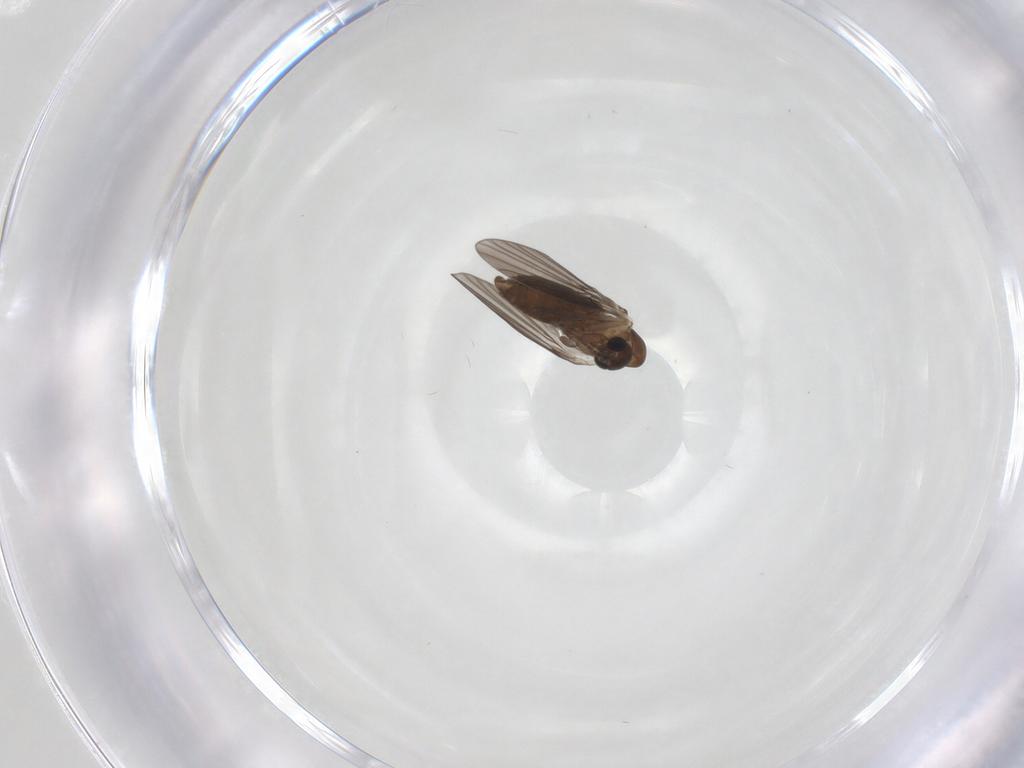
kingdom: Animalia
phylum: Arthropoda
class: Insecta
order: Diptera
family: Psychodidae
